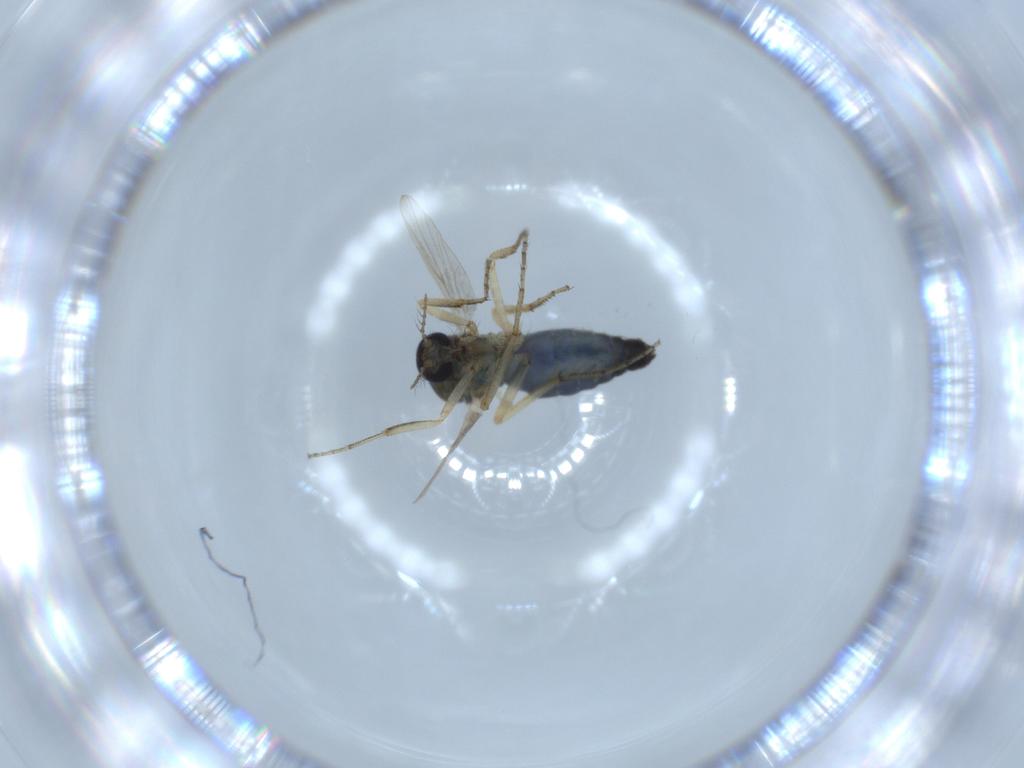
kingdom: Animalia
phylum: Arthropoda
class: Insecta
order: Diptera
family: Ceratopogonidae
